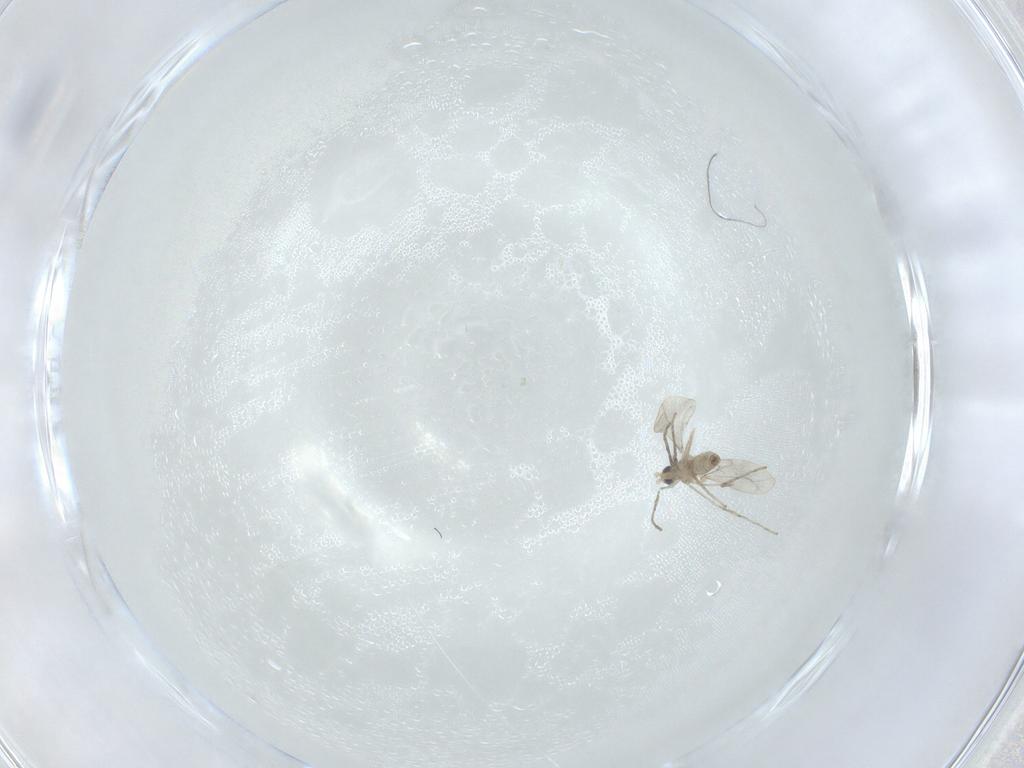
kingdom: Animalia
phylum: Arthropoda
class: Insecta
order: Diptera
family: Cecidomyiidae
